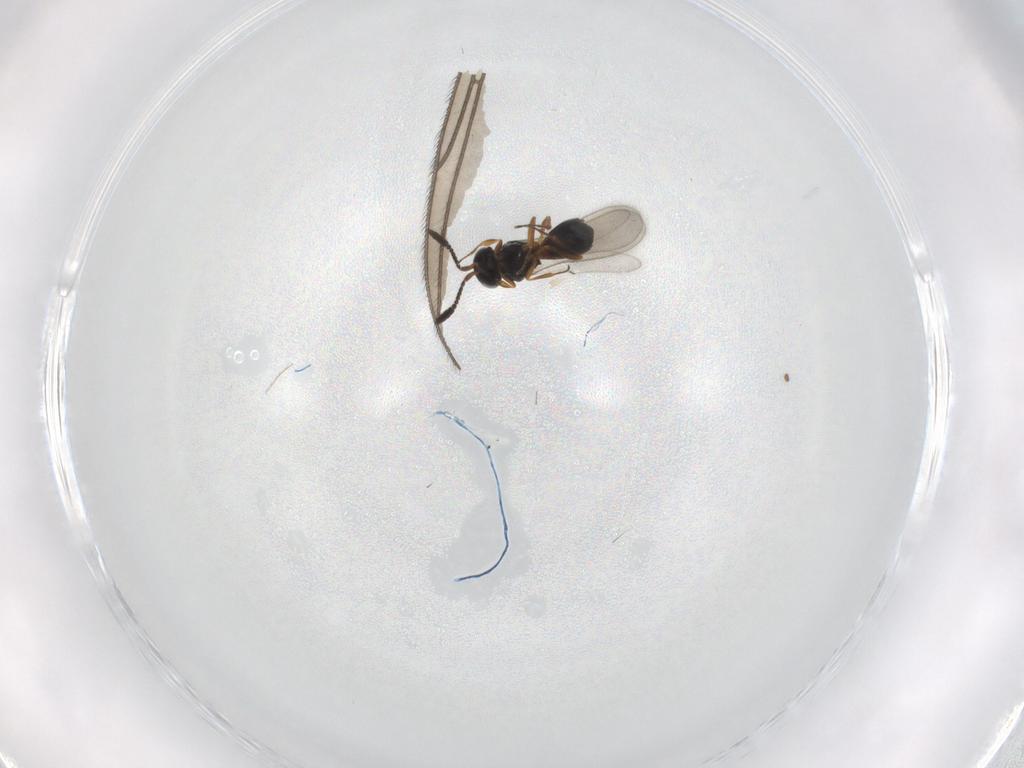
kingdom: Animalia
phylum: Arthropoda
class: Insecta
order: Hymenoptera
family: Scelionidae
